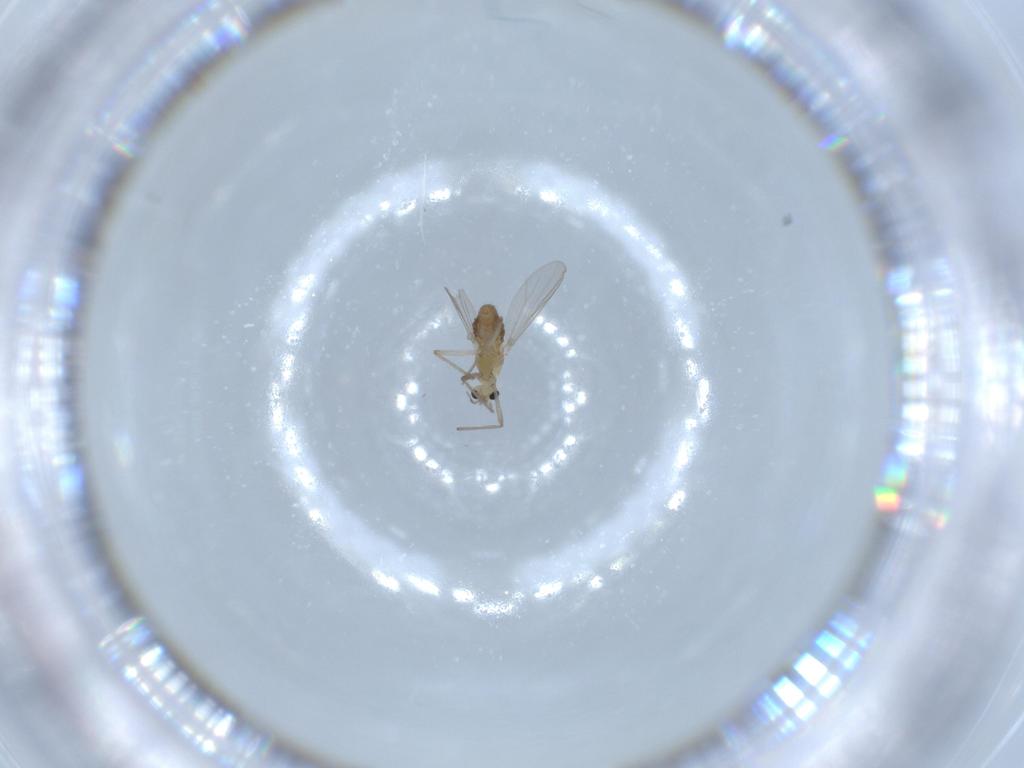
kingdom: Animalia
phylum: Arthropoda
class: Insecta
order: Diptera
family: Chironomidae
